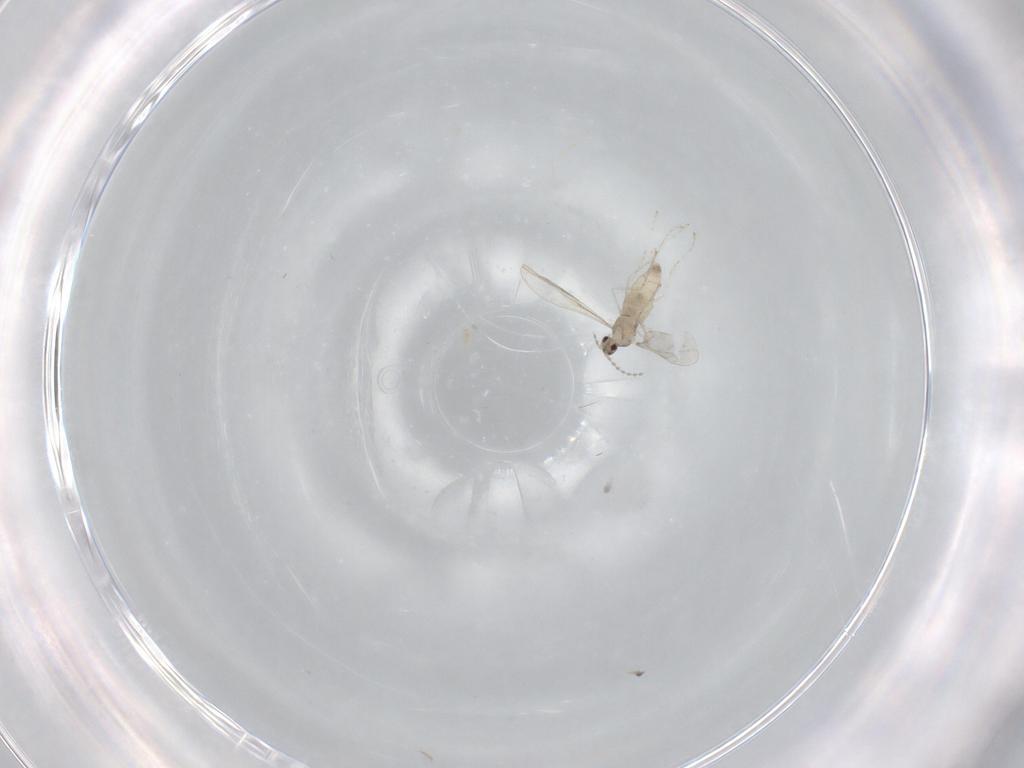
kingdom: Animalia
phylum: Arthropoda
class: Insecta
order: Diptera
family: Cecidomyiidae
